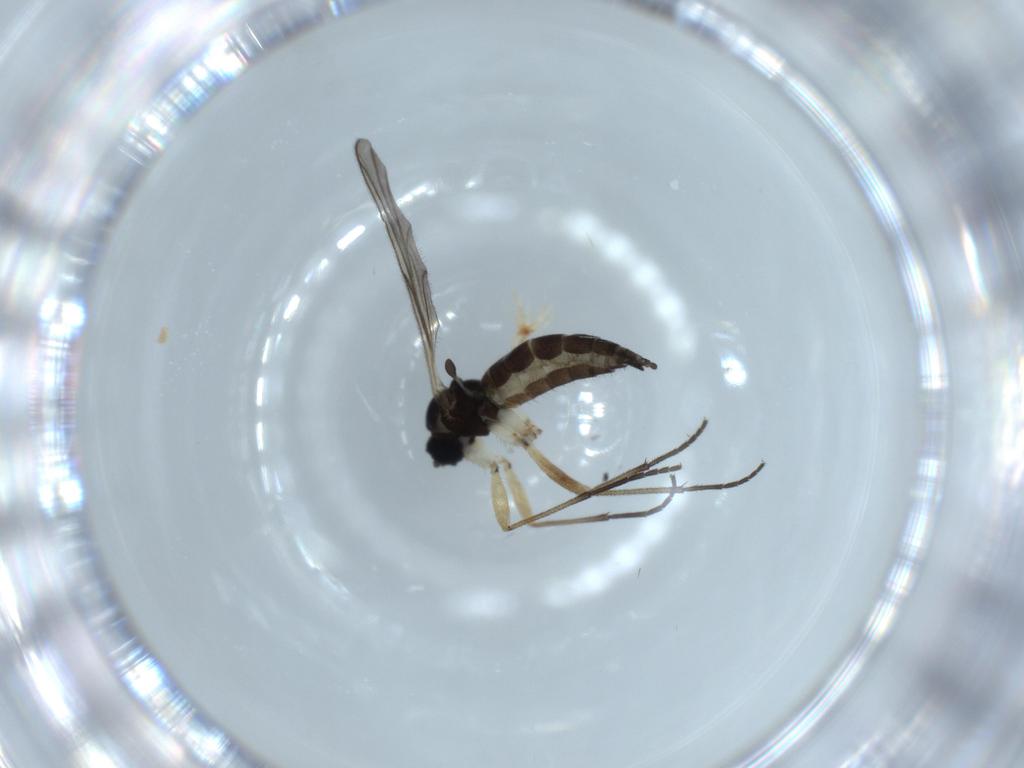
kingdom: Animalia
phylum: Arthropoda
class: Insecta
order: Diptera
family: Sciaridae
